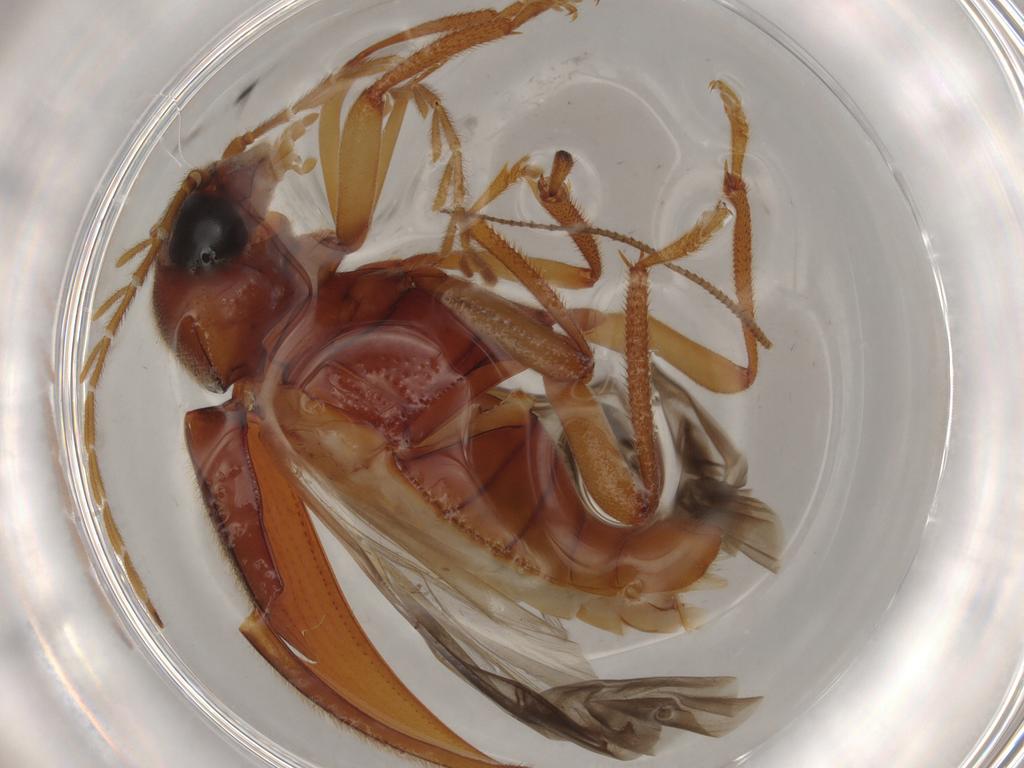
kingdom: Animalia
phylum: Arthropoda
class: Insecta
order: Coleoptera
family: Ptilodactylidae
